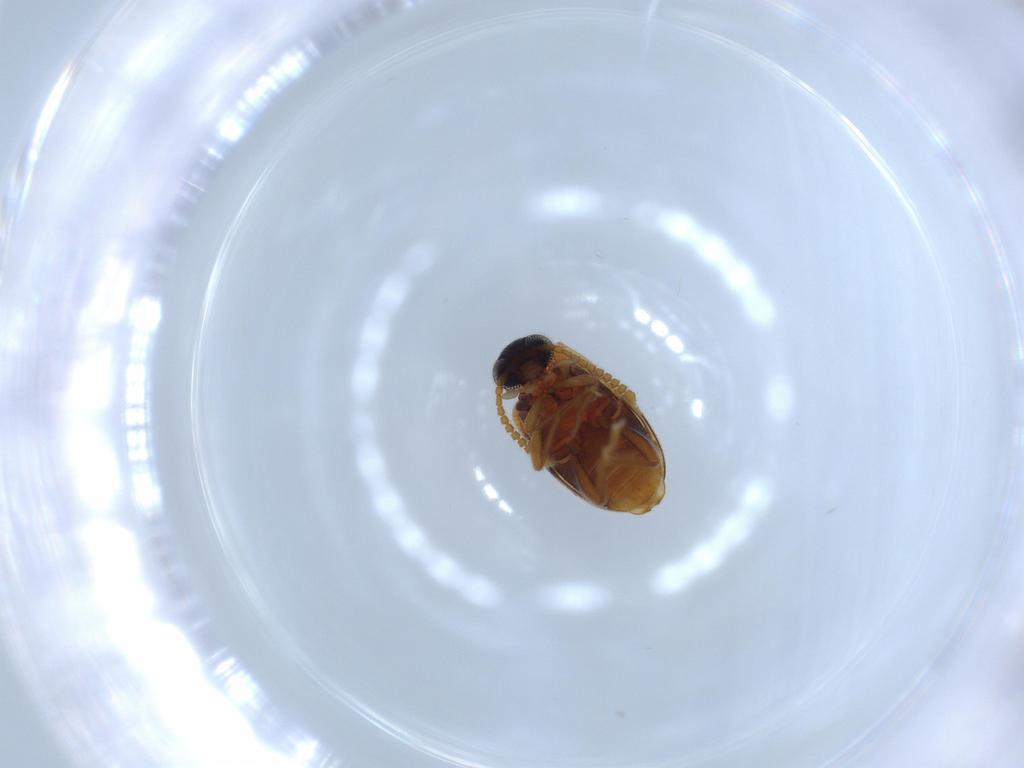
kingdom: Animalia
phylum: Arthropoda
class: Insecta
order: Coleoptera
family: Aderidae
